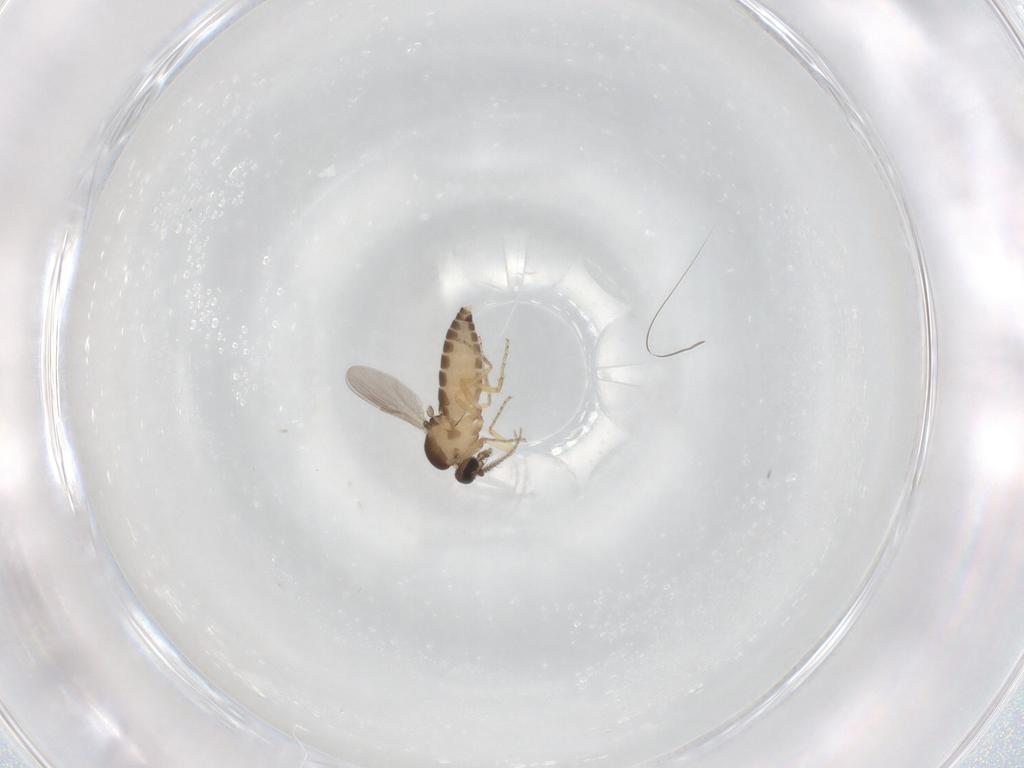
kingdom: Animalia
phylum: Arthropoda
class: Insecta
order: Diptera
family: Ceratopogonidae
